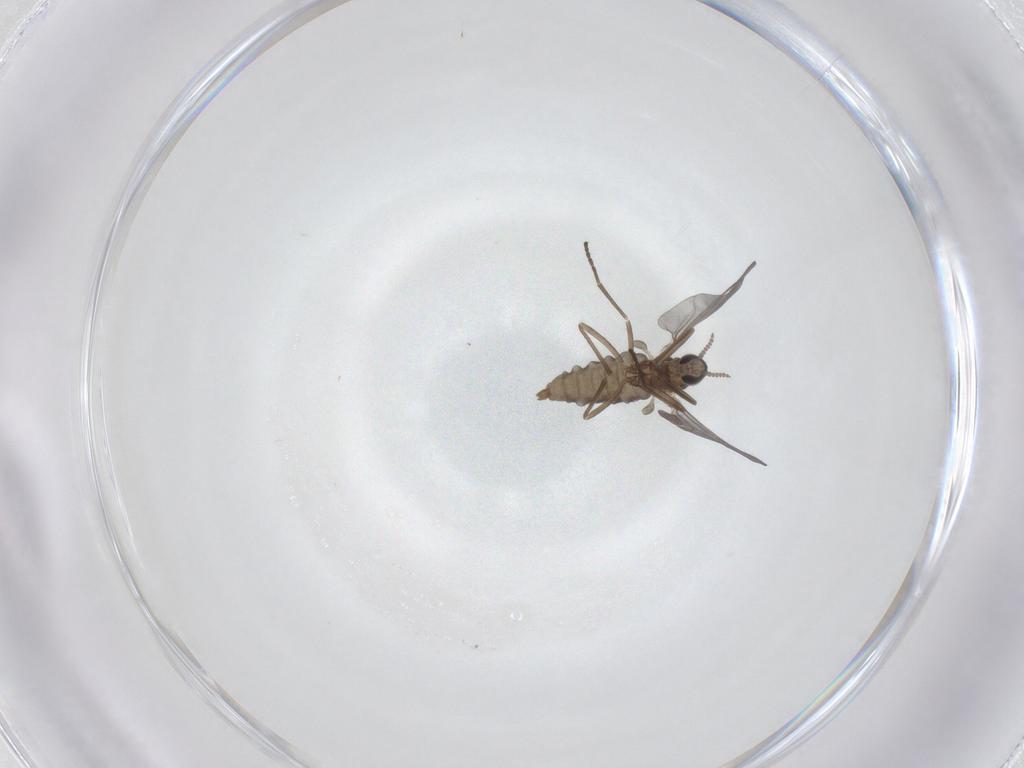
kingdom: Animalia
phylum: Arthropoda
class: Insecta
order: Diptera
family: Cecidomyiidae
